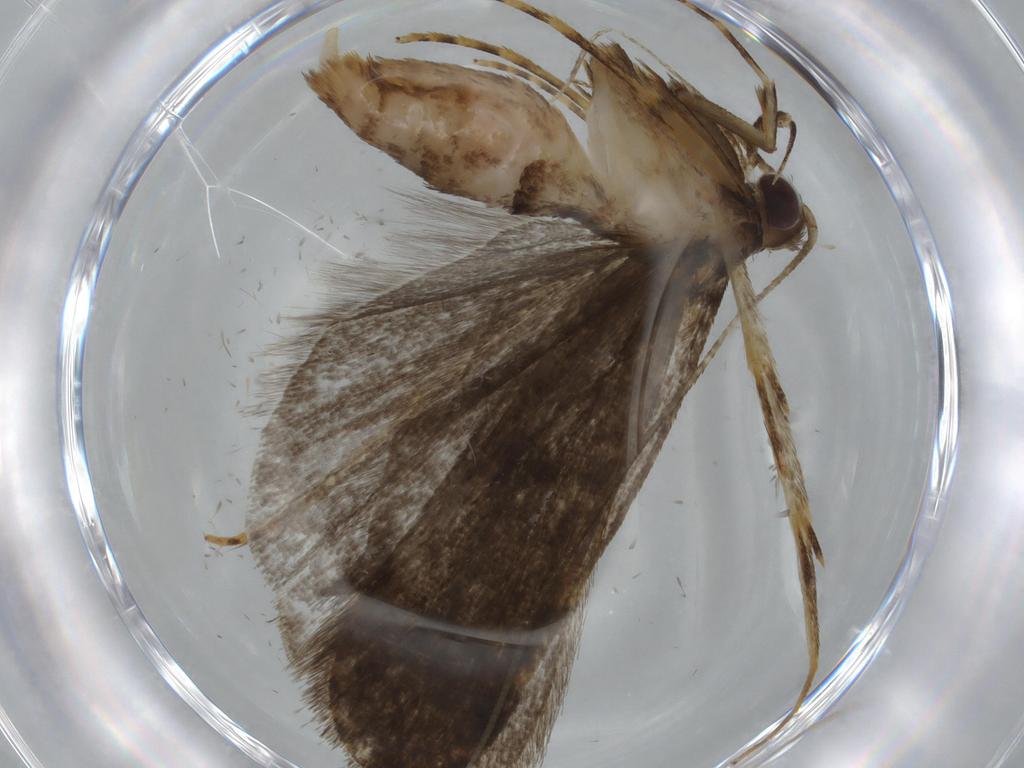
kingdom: Animalia
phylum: Arthropoda
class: Insecta
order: Lepidoptera
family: Autostichidae
